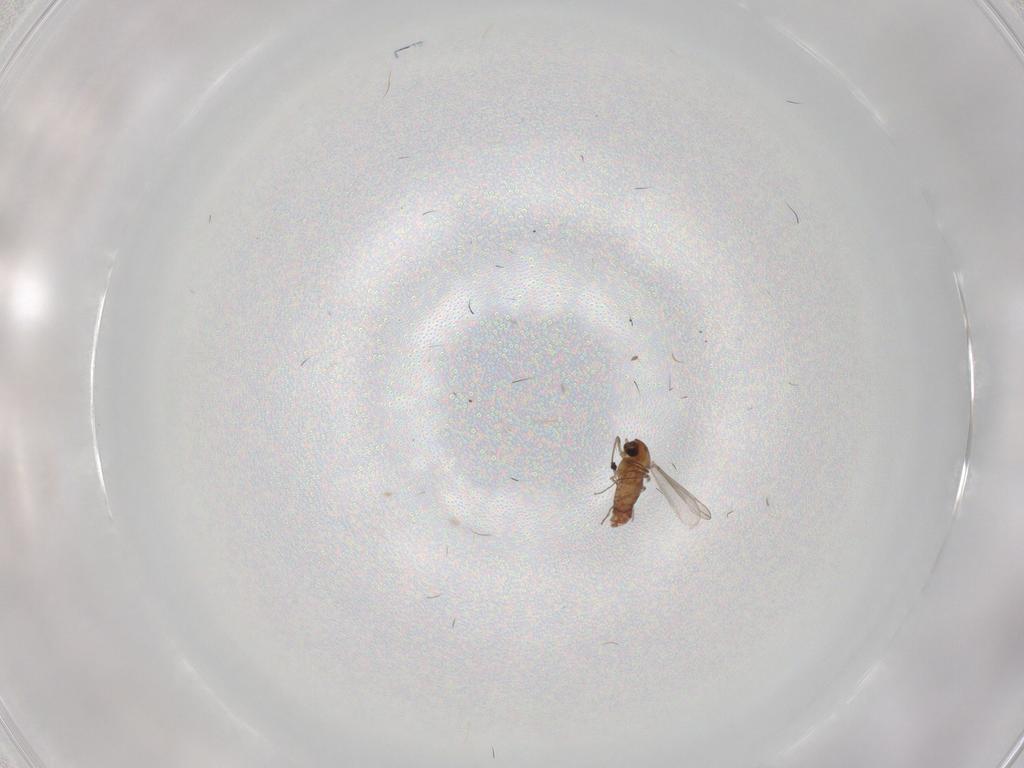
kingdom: Animalia
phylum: Arthropoda
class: Insecta
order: Diptera
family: Chironomidae
